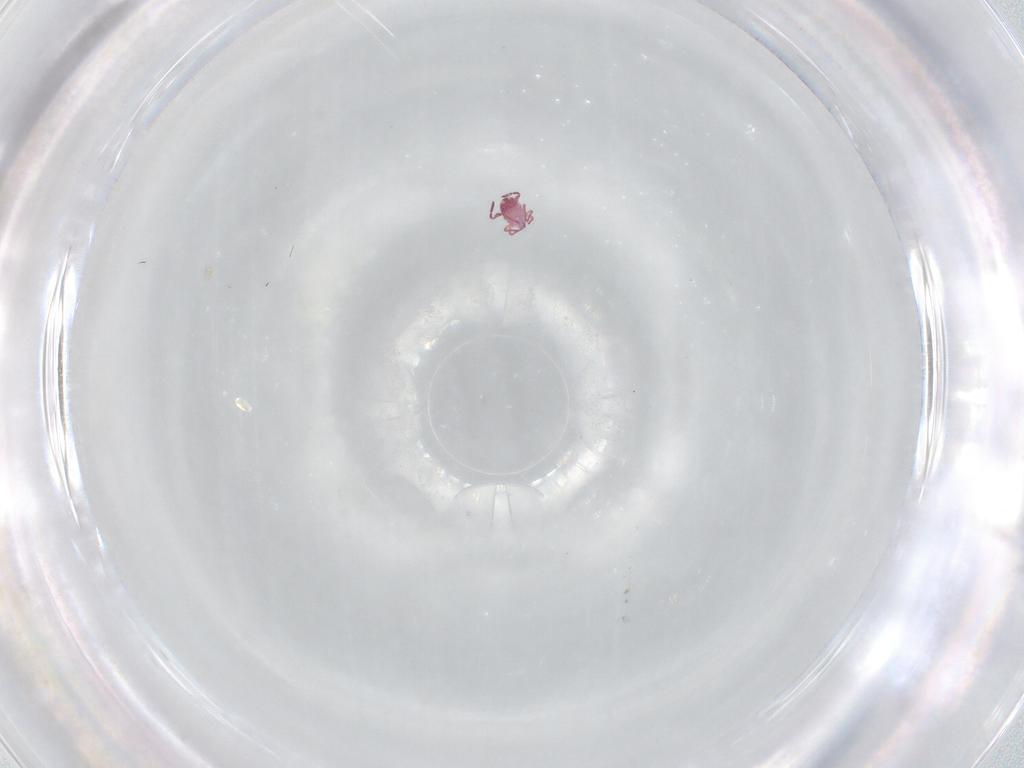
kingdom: Animalia
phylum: Arthropoda
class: Collembola
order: Symphypleona
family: Sminthurididae
